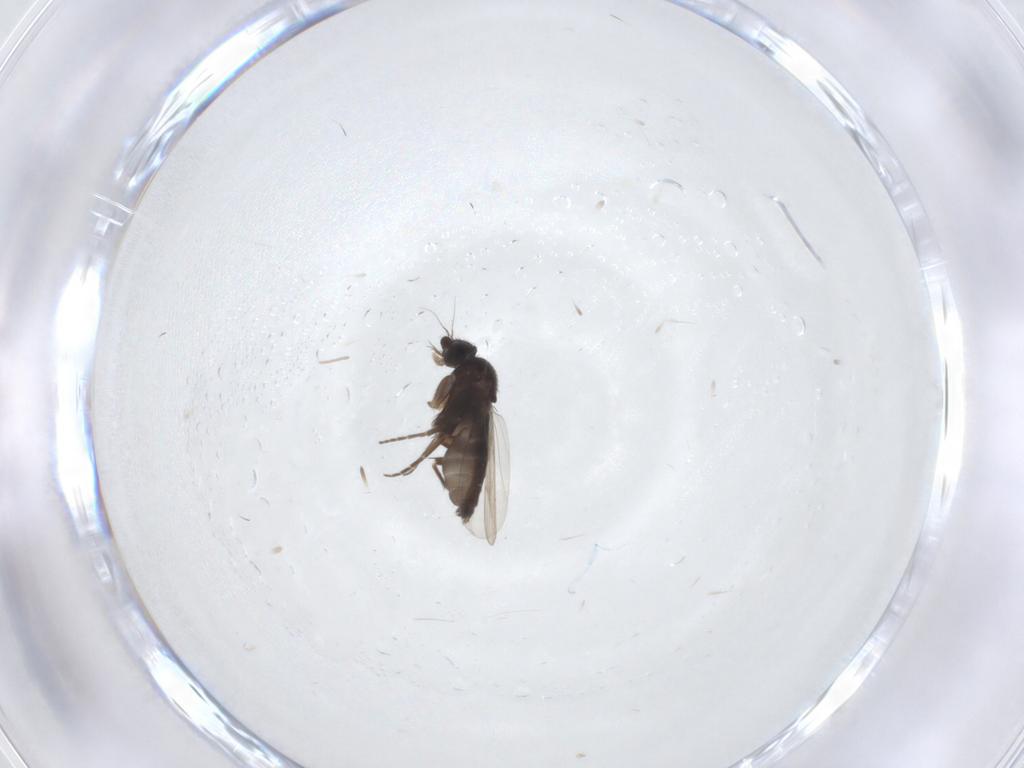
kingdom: Animalia
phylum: Arthropoda
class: Insecta
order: Diptera
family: Phoridae
